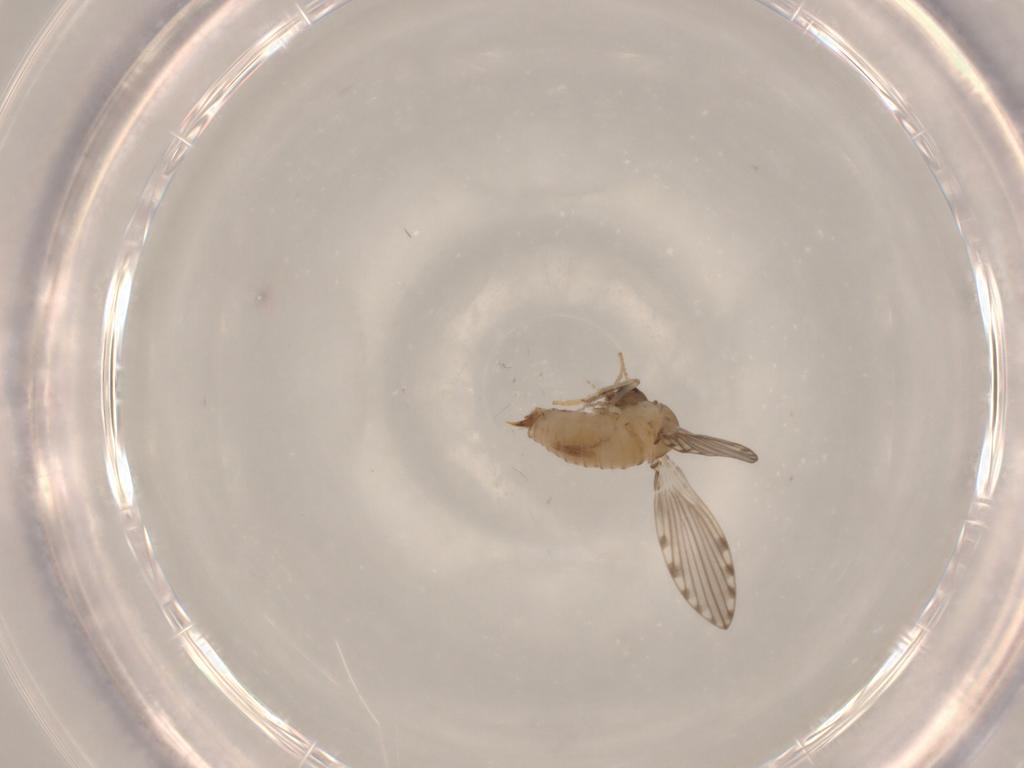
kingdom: Animalia
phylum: Arthropoda
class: Insecta
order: Diptera
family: Psychodidae
